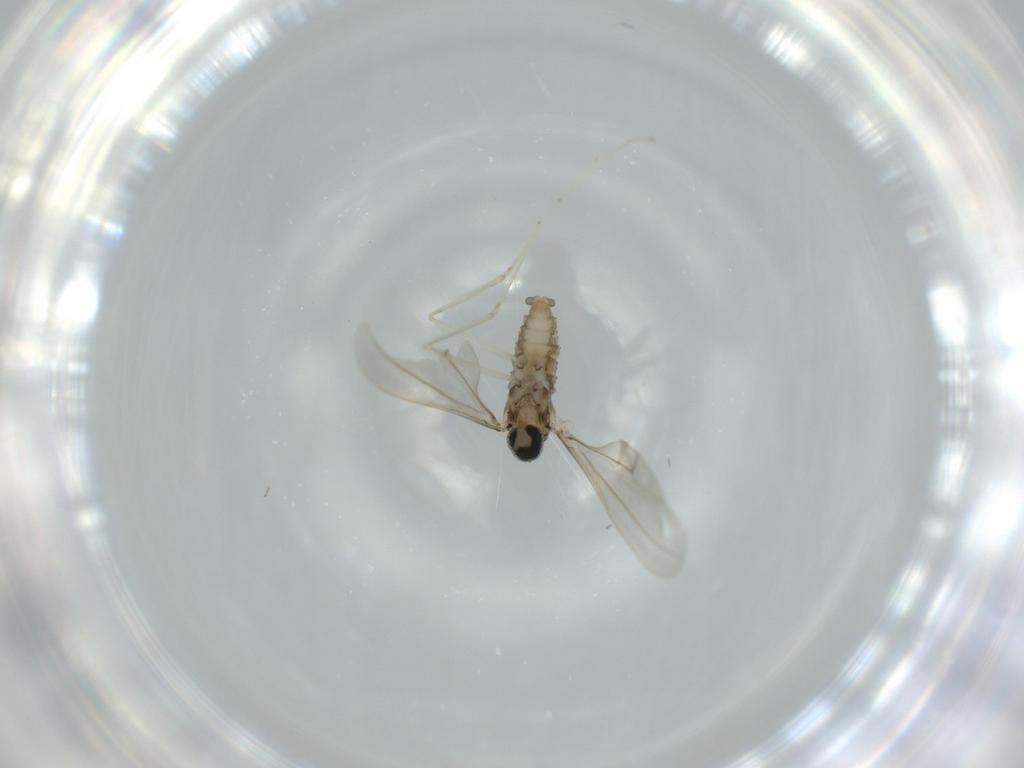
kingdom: Animalia
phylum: Arthropoda
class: Insecta
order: Diptera
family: Cecidomyiidae
